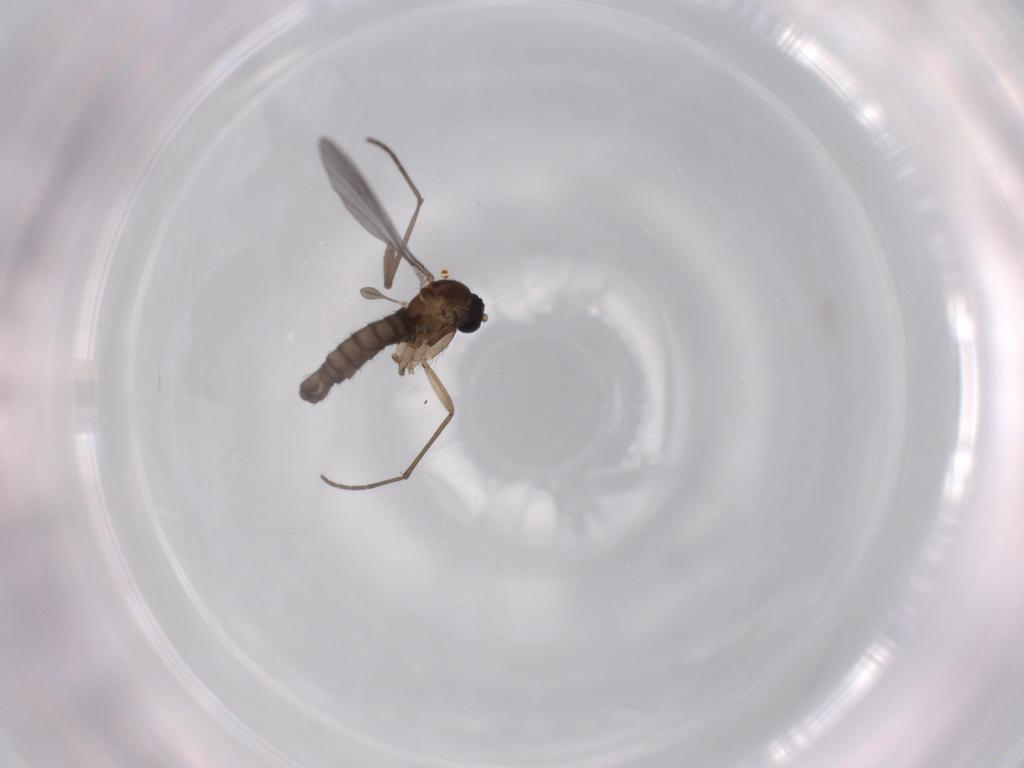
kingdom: Animalia
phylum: Arthropoda
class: Insecta
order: Diptera
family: Sciaridae
